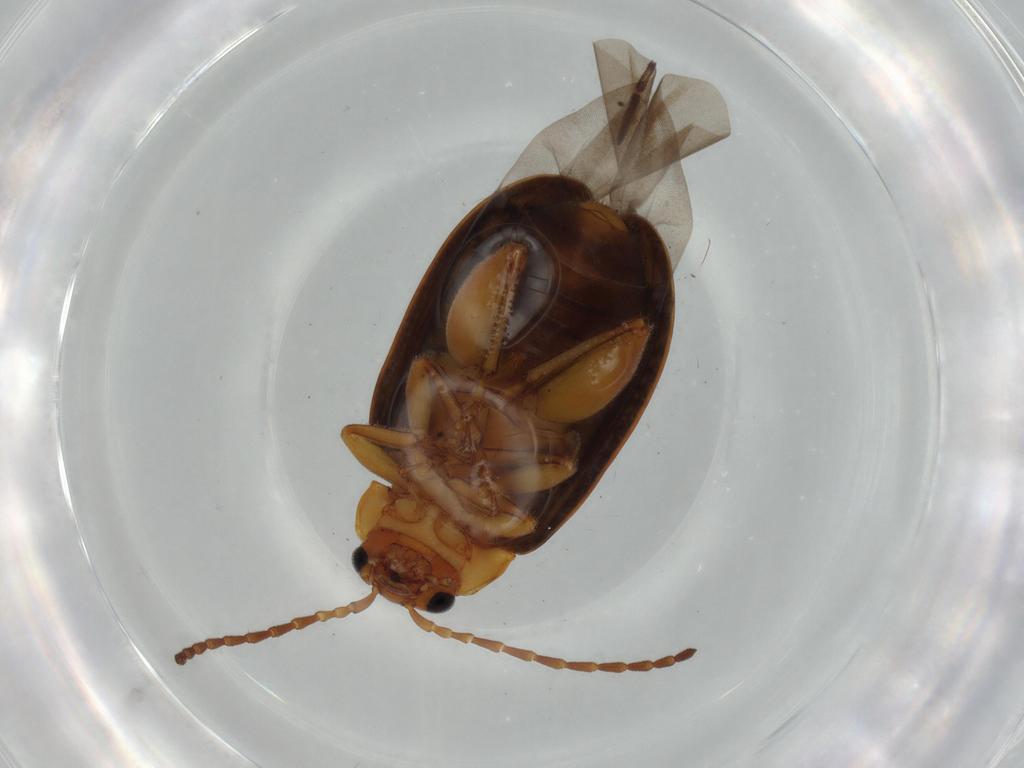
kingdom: Animalia
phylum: Arthropoda
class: Insecta
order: Coleoptera
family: Chrysomelidae
